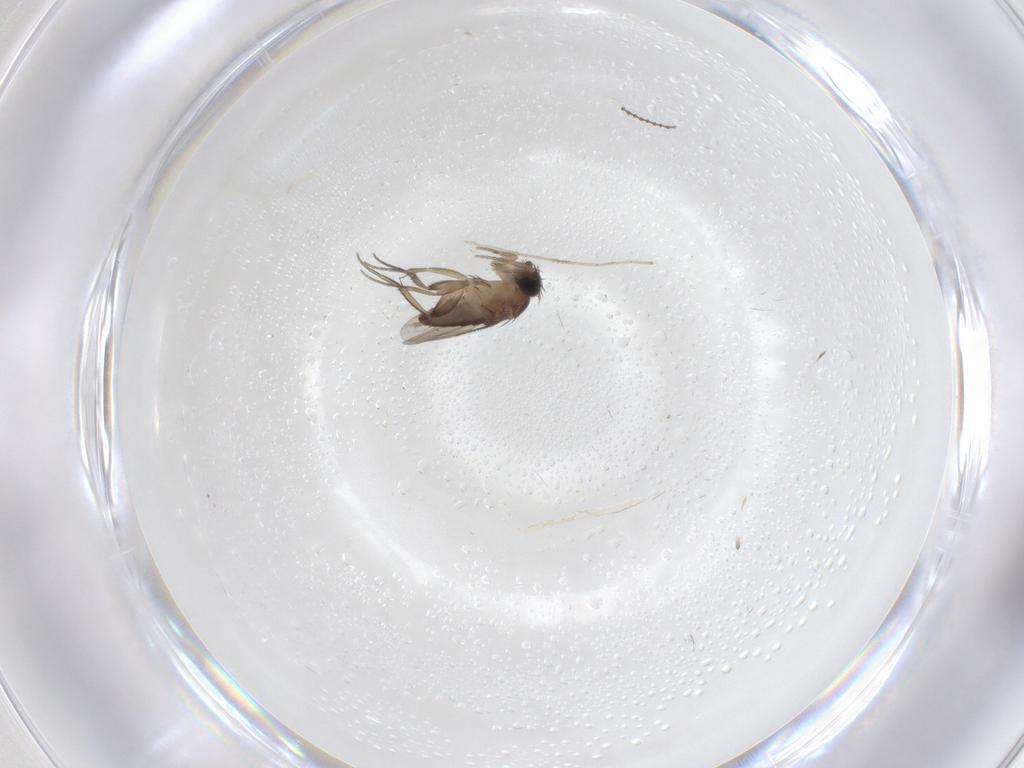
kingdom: Animalia
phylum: Arthropoda
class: Insecta
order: Diptera
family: Phoridae
